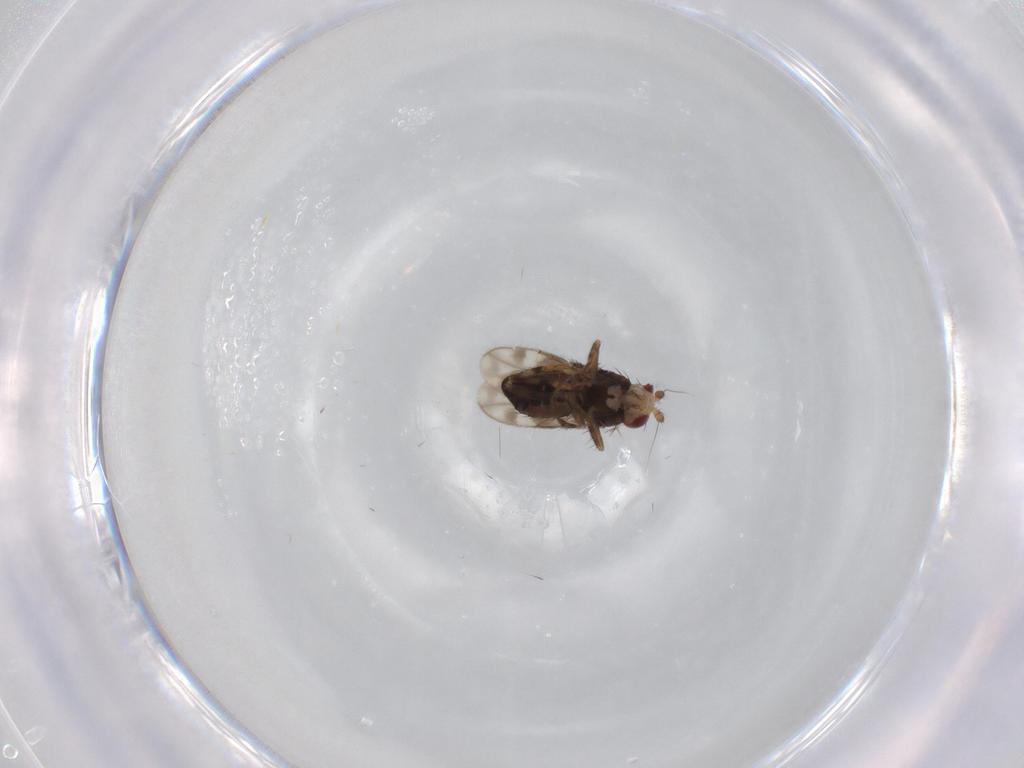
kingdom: Animalia
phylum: Arthropoda
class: Insecta
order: Diptera
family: Sphaeroceridae
